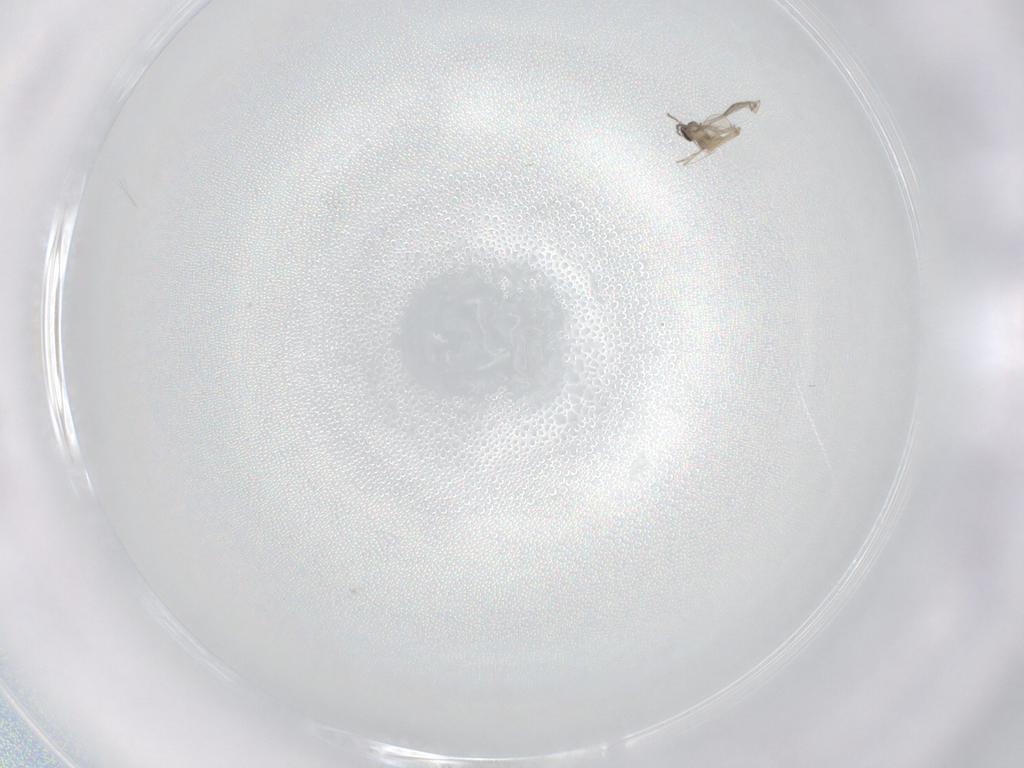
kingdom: Animalia
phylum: Arthropoda
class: Insecta
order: Diptera
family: Cecidomyiidae
